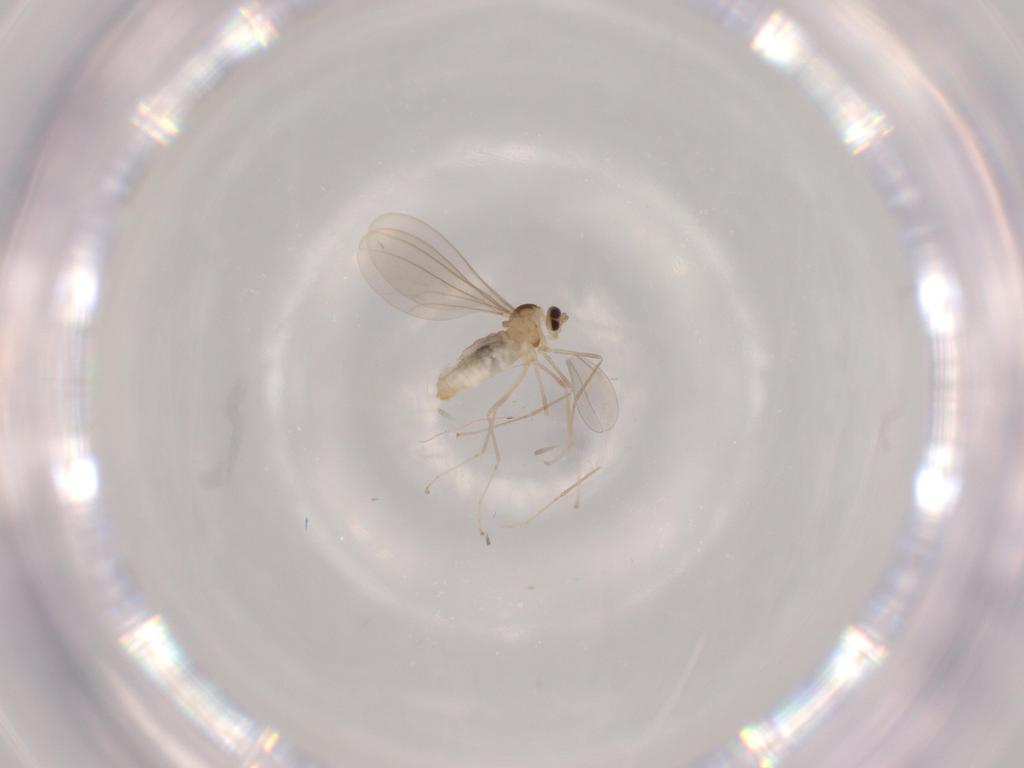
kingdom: Animalia
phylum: Arthropoda
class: Insecta
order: Diptera
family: Cecidomyiidae
